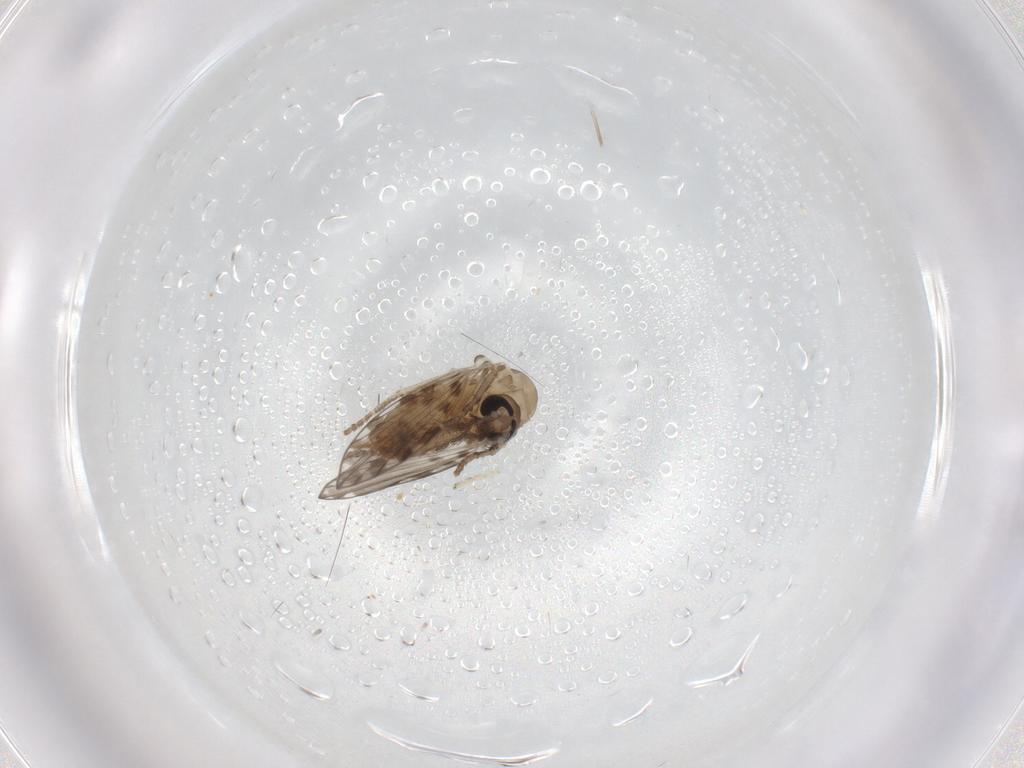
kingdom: Animalia
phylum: Arthropoda
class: Insecta
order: Diptera
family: Psychodidae
